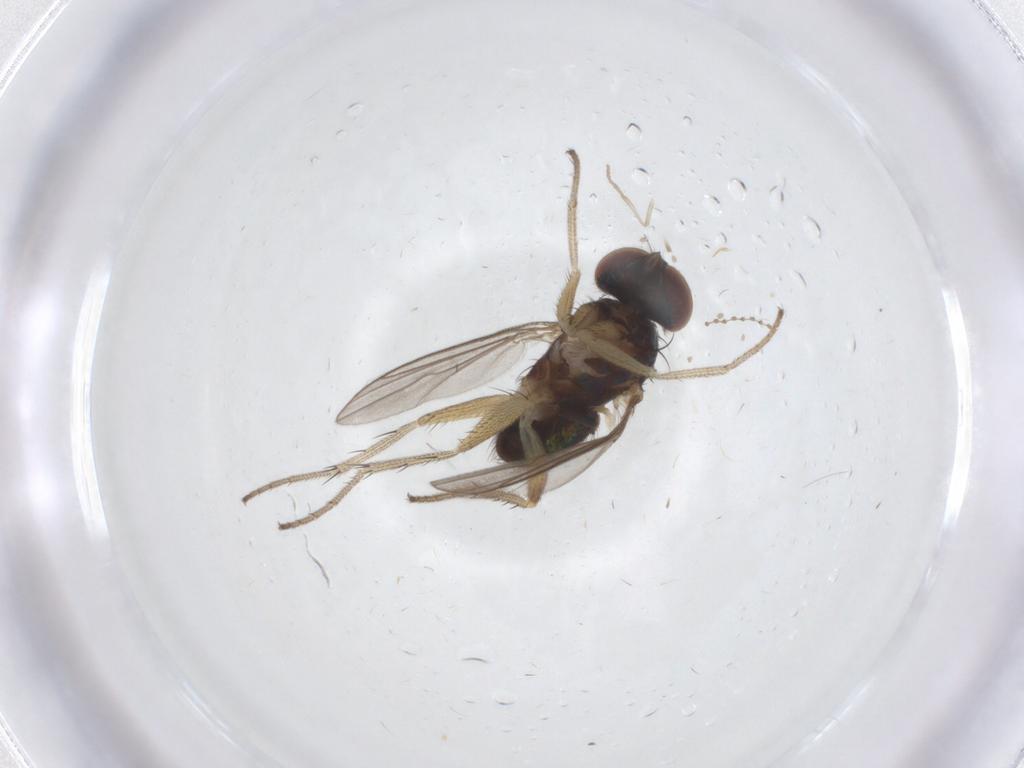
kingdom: Animalia
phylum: Arthropoda
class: Insecta
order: Diptera
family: Dolichopodidae
